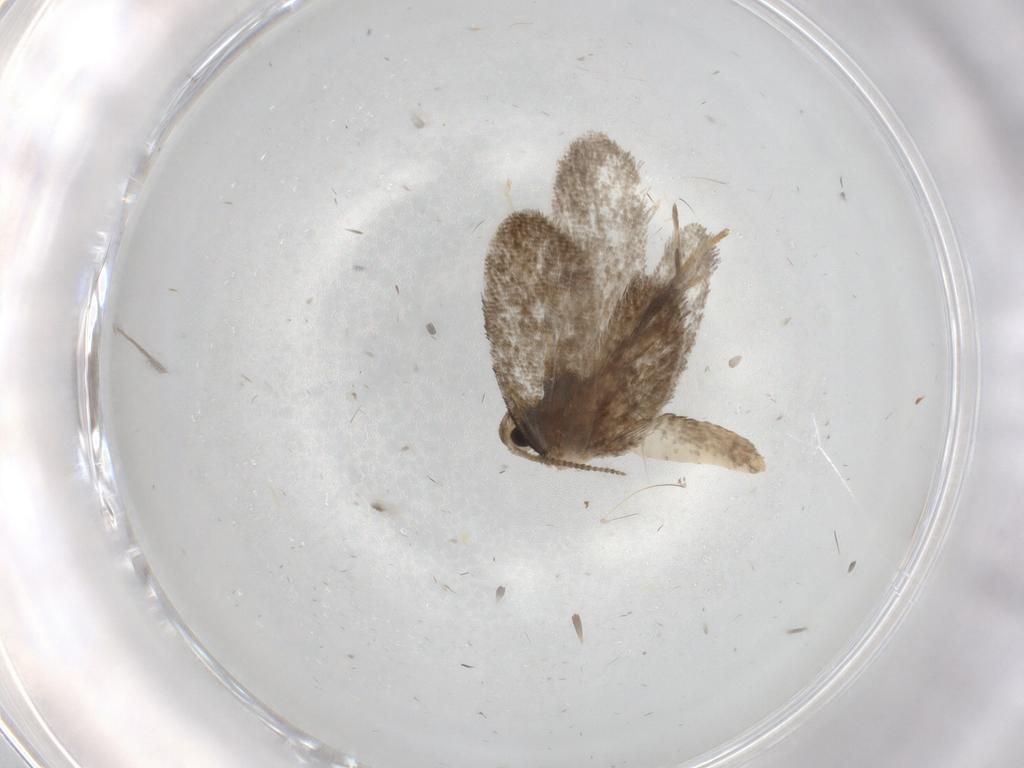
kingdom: Animalia
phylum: Arthropoda
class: Insecta
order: Lepidoptera
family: Psychidae
